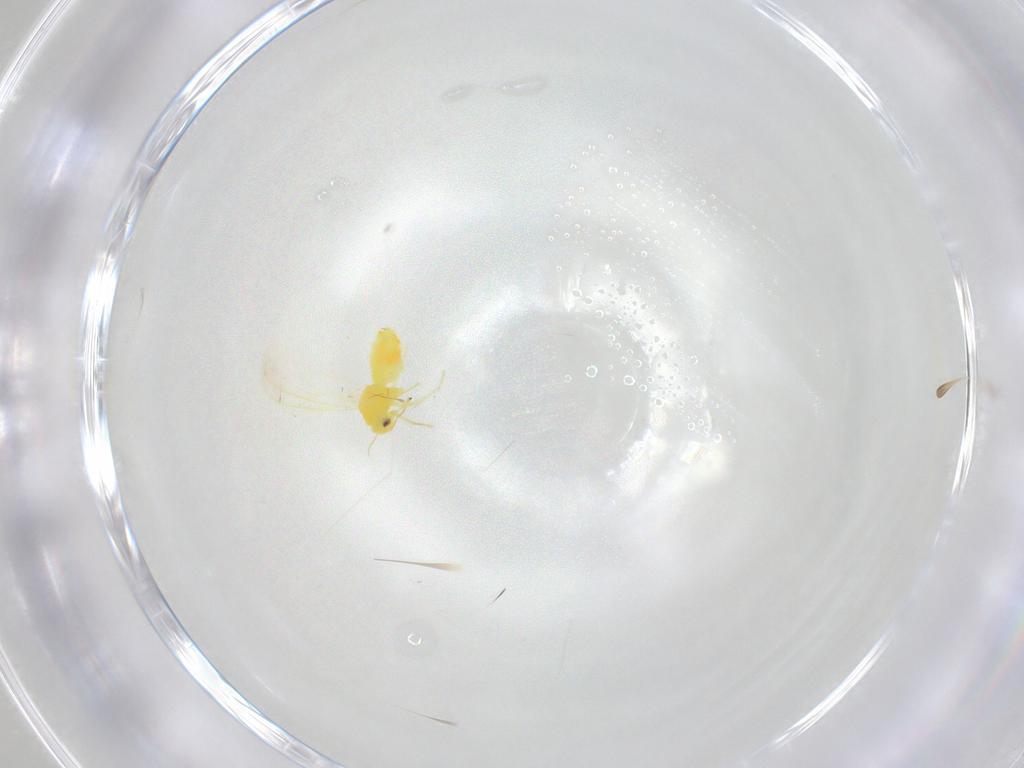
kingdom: Animalia
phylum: Arthropoda
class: Insecta
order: Hemiptera
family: Aleyrodidae
